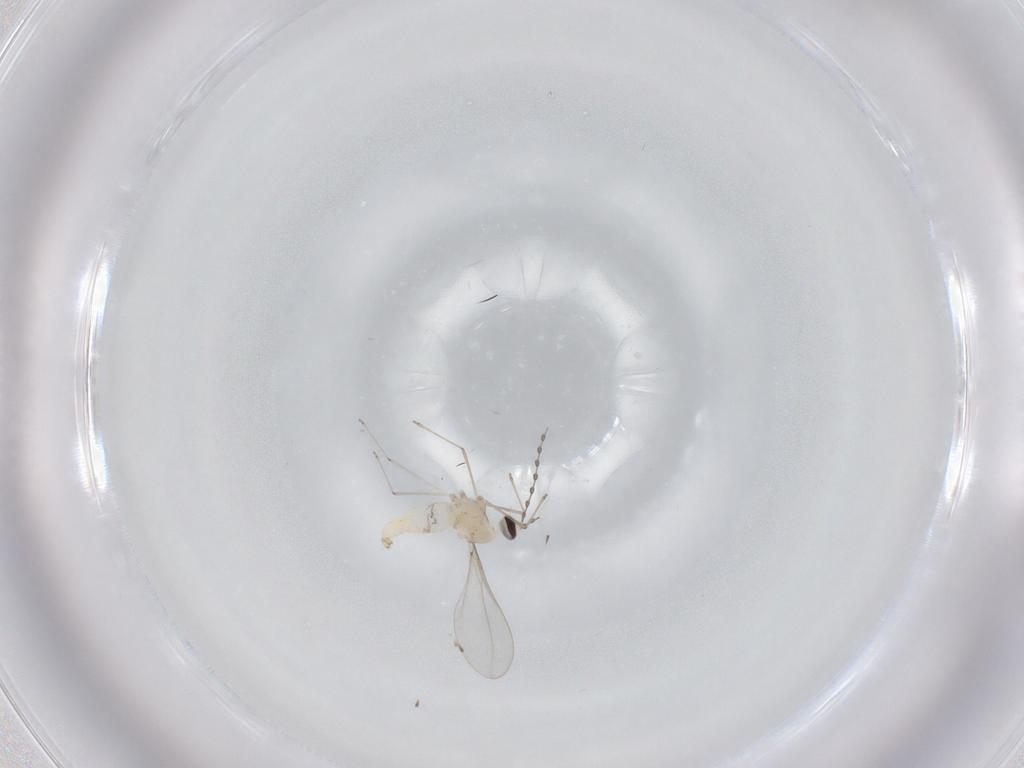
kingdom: Animalia
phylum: Arthropoda
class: Insecta
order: Diptera
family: Cecidomyiidae
